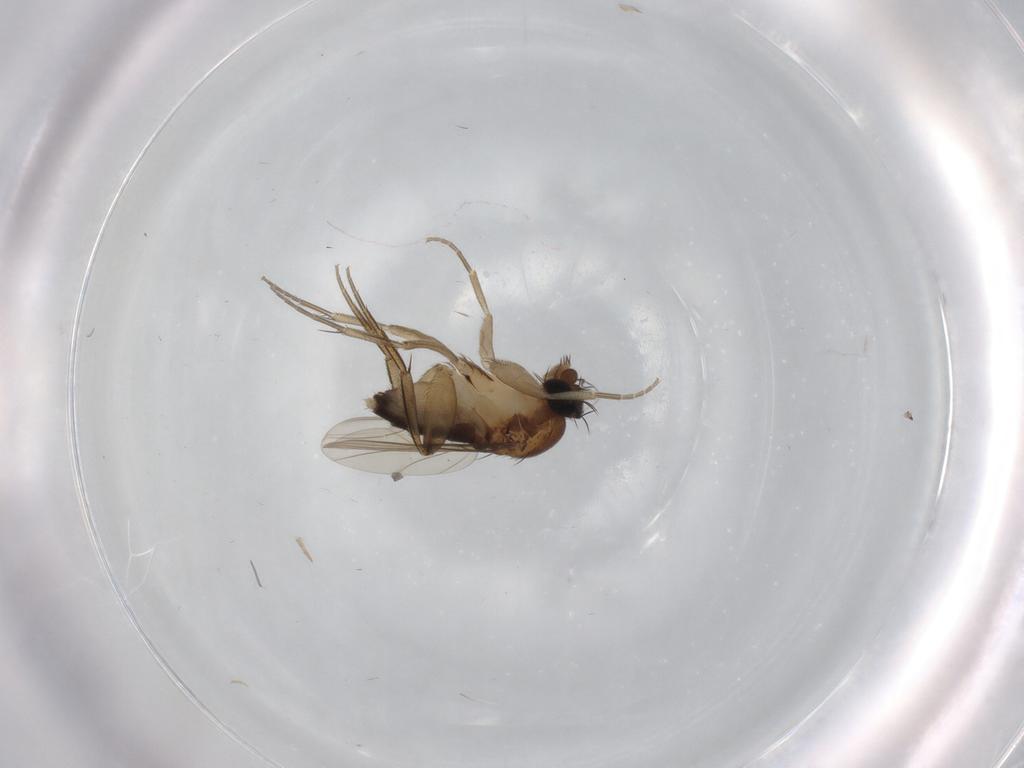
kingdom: Animalia
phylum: Arthropoda
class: Insecta
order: Diptera
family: Phoridae
